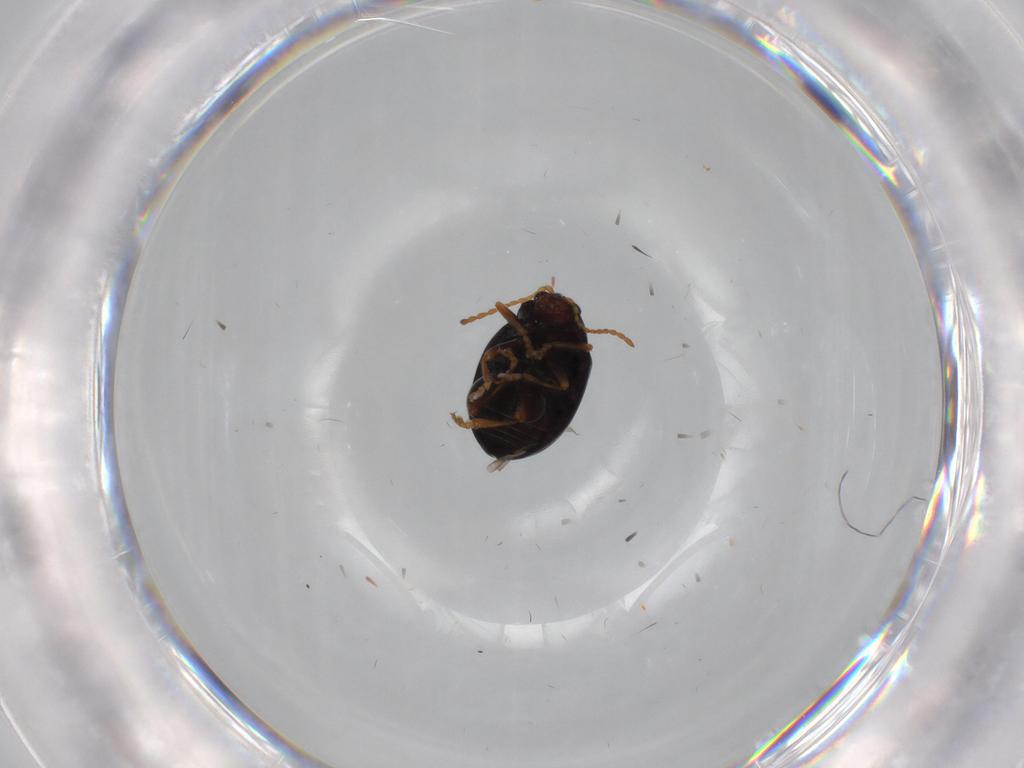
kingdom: Animalia
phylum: Arthropoda
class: Insecta
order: Coleoptera
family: Chrysomelidae
